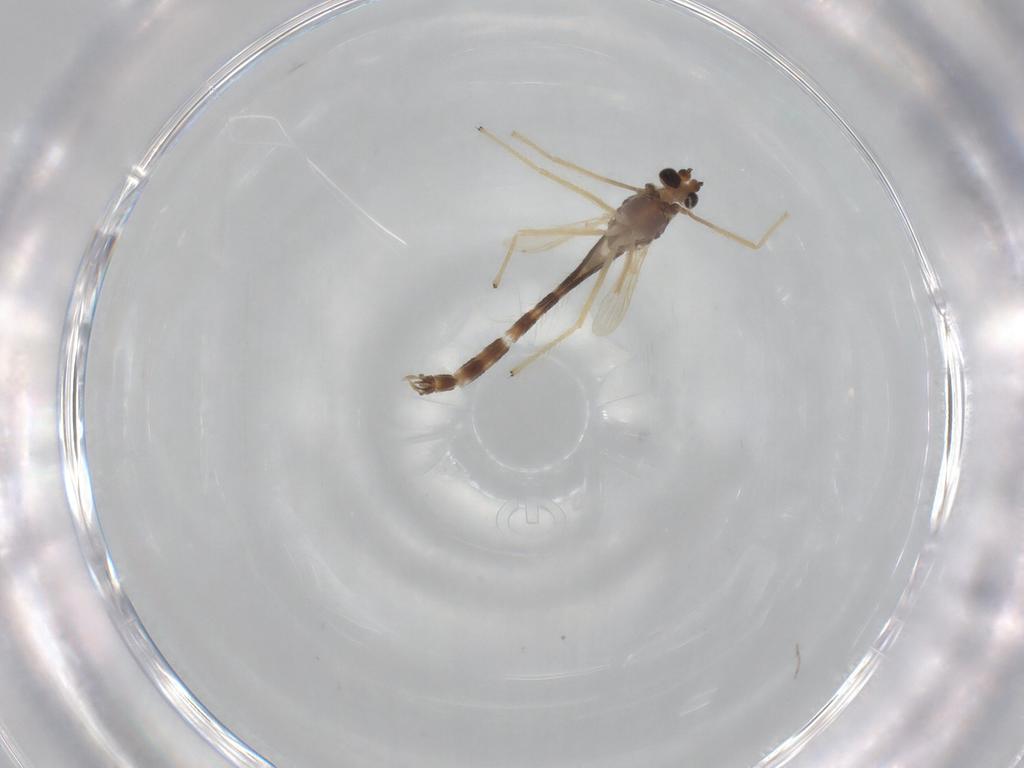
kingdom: Animalia
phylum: Arthropoda
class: Insecta
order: Diptera
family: Chironomidae
